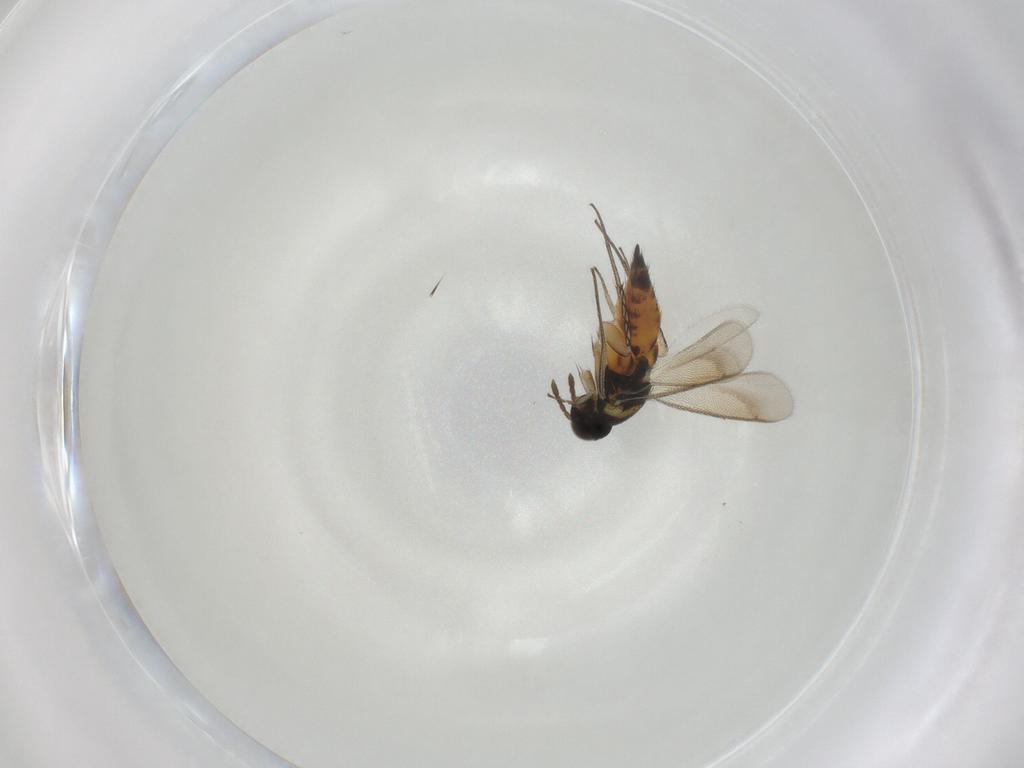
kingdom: Animalia
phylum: Arthropoda
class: Insecta
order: Hymenoptera
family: Eulophidae
